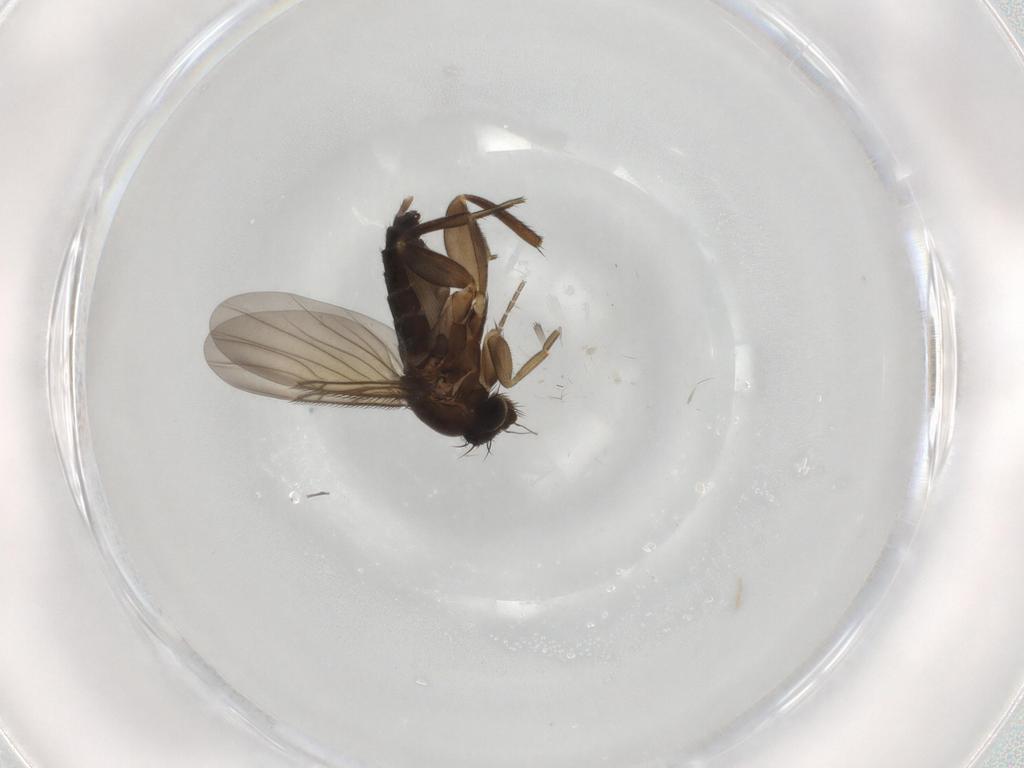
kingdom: Animalia
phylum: Arthropoda
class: Insecta
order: Diptera
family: Phoridae
